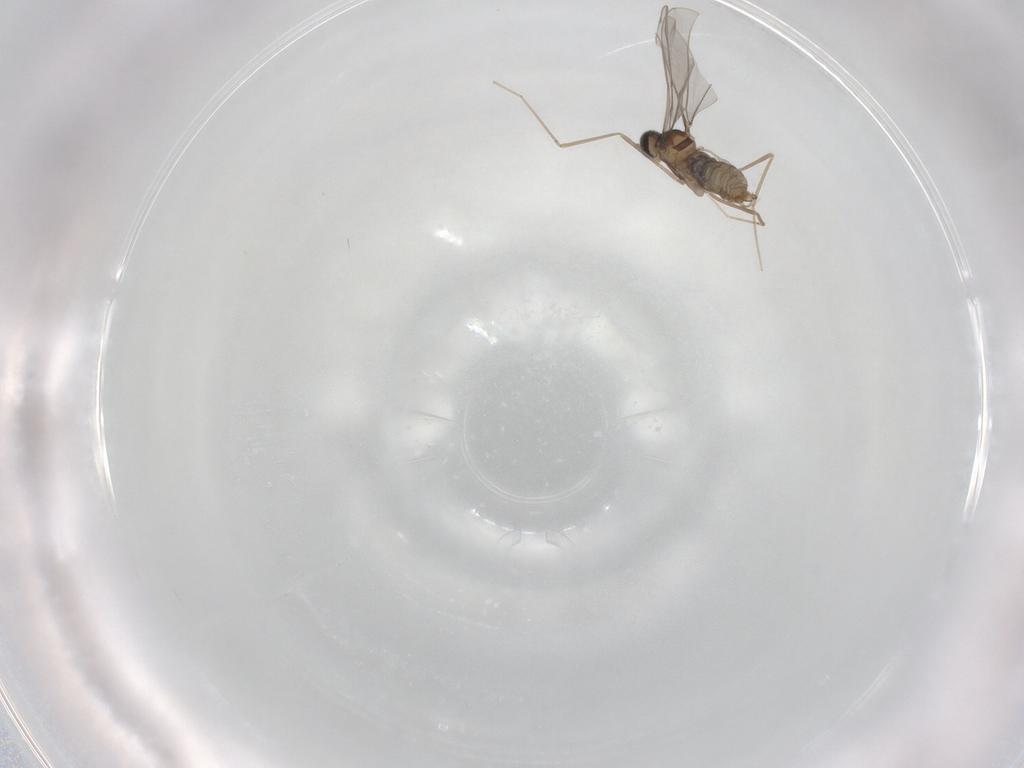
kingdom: Animalia
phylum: Arthropoda
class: Insecta
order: Diptera
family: Cecidomyiidae
